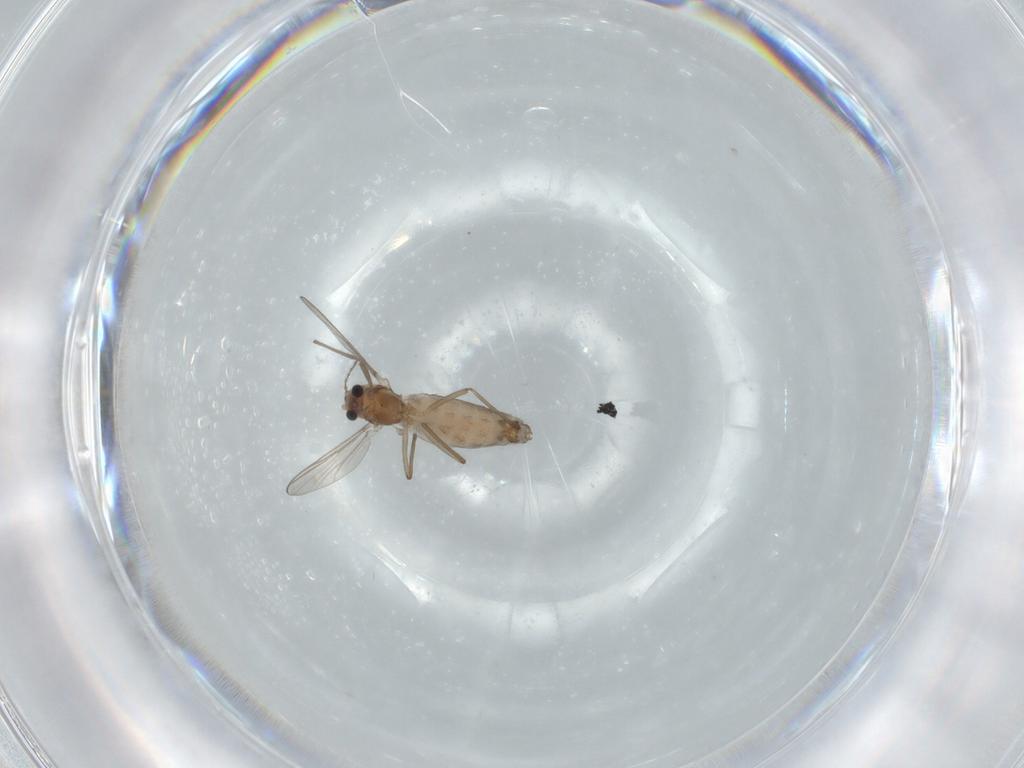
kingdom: Animalia
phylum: Arthropoda
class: Insecta
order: Diptera
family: Chironomidae
